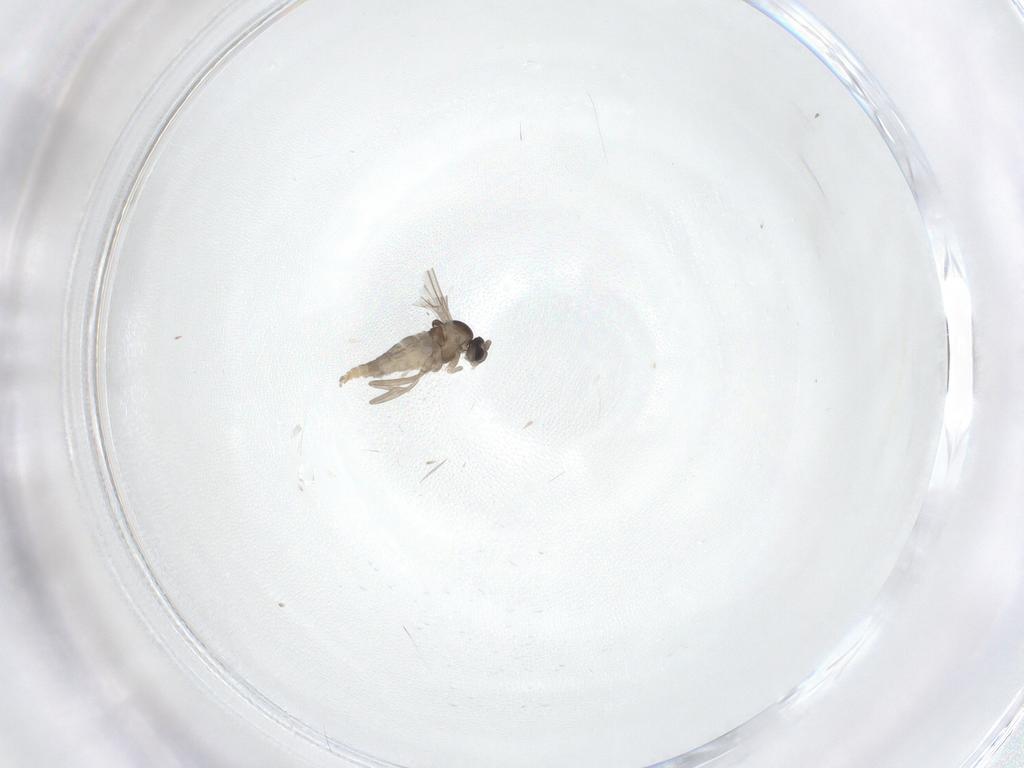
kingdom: Animalia
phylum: Arthropoda
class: Insecta
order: Diptera
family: Cecidomyiidae
